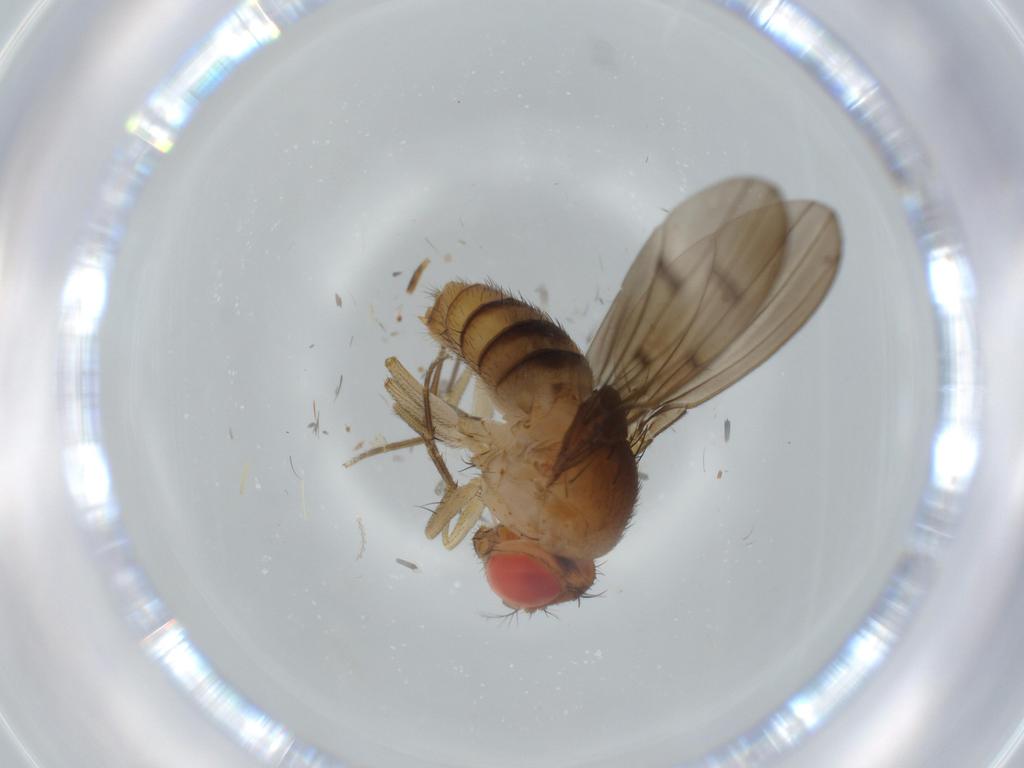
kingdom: Animalia
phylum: Arthropoda
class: Insecta
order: Diptera
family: Drosophilidae
